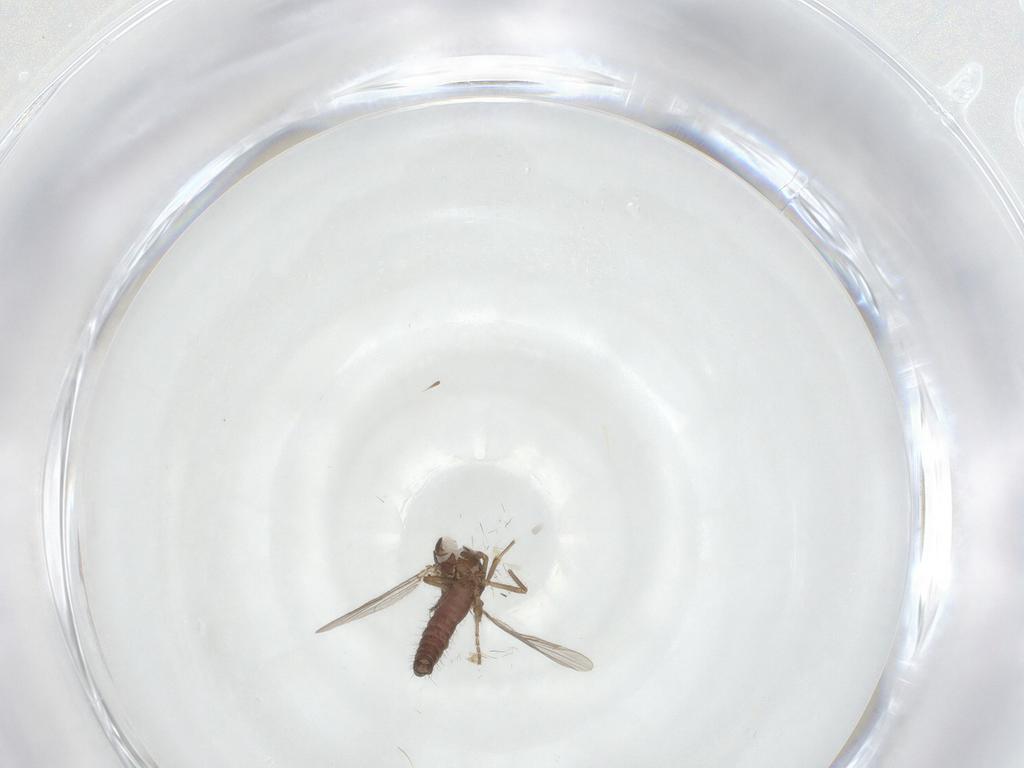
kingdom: Animalia
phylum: Arthropoda
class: Insecta
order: Diptera
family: Ceratopogonidae
